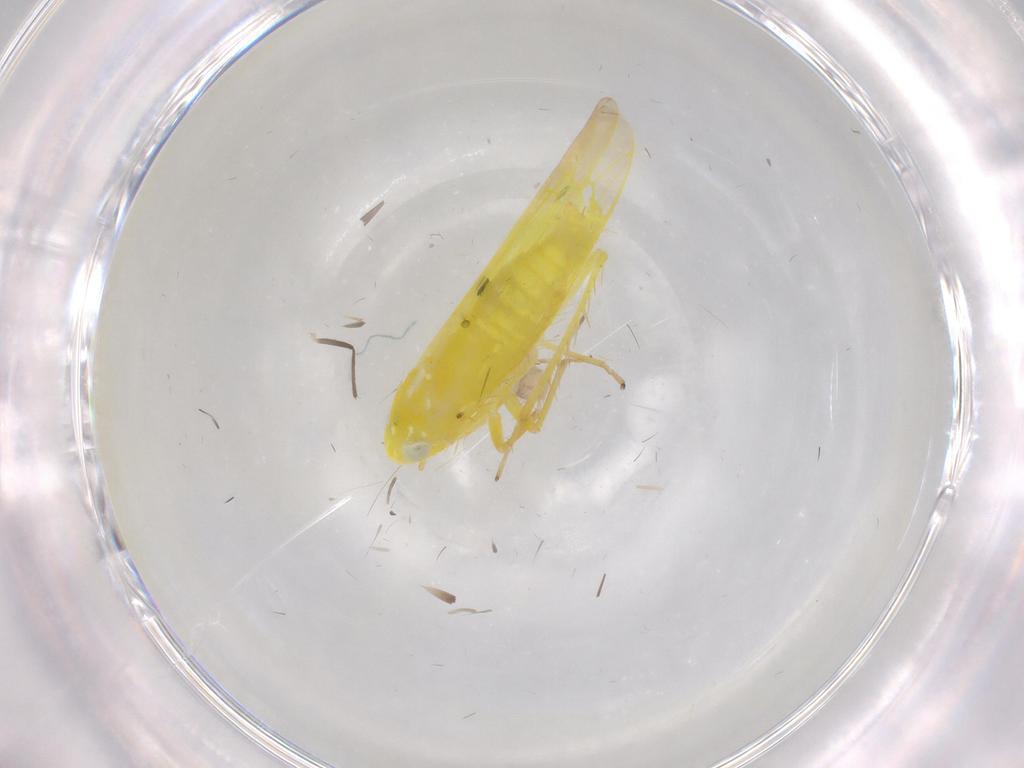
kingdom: Animalia
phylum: Arthropoda
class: Insecta
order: Hemiptera
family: Cicadellidae
